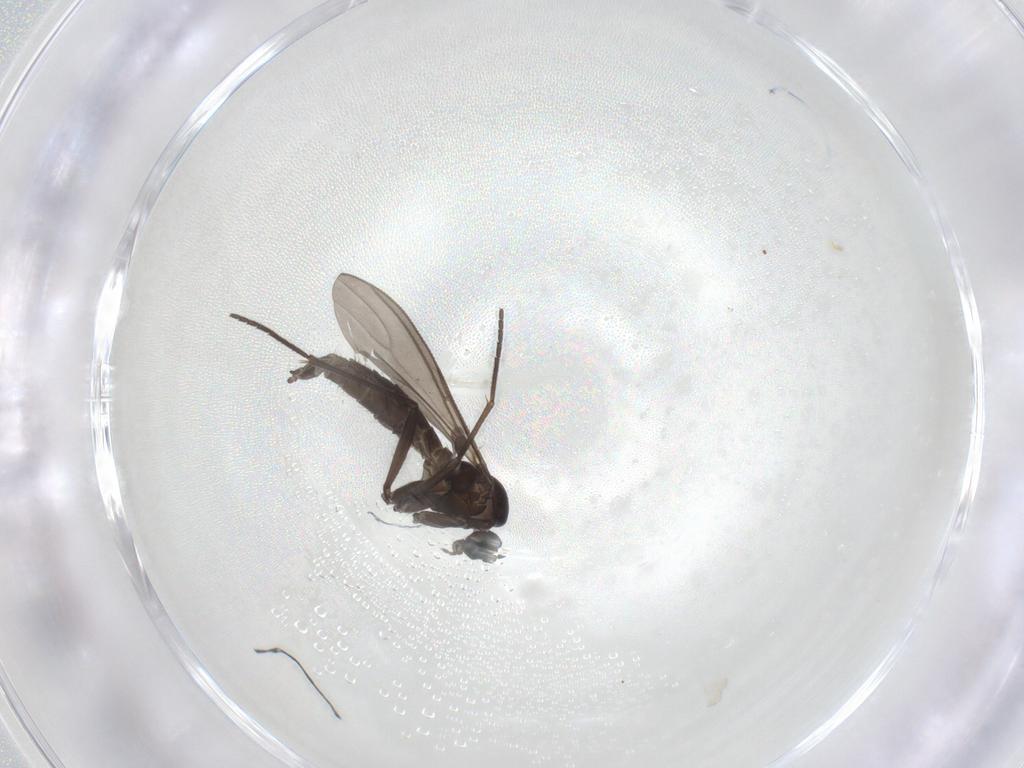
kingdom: Animalia
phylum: Arthropoda
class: Insecta
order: Diptera
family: Sciaridae
